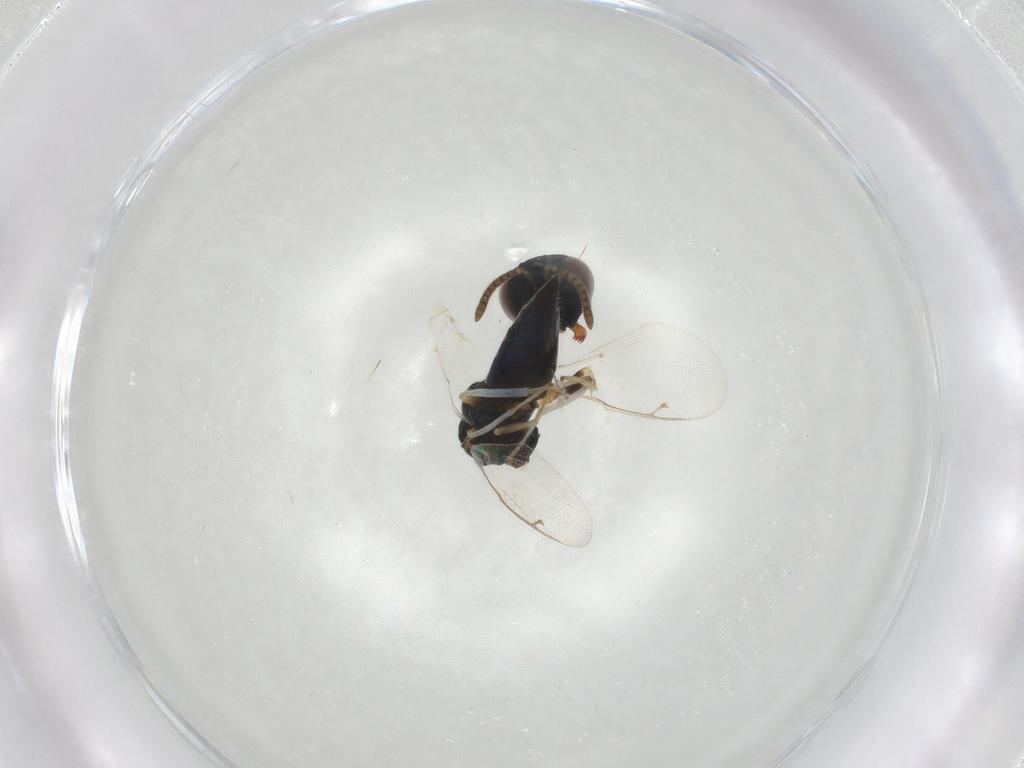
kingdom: Animalia
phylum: Arthropoda
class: Insecta
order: Hymenoptera
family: Pteromalidae
